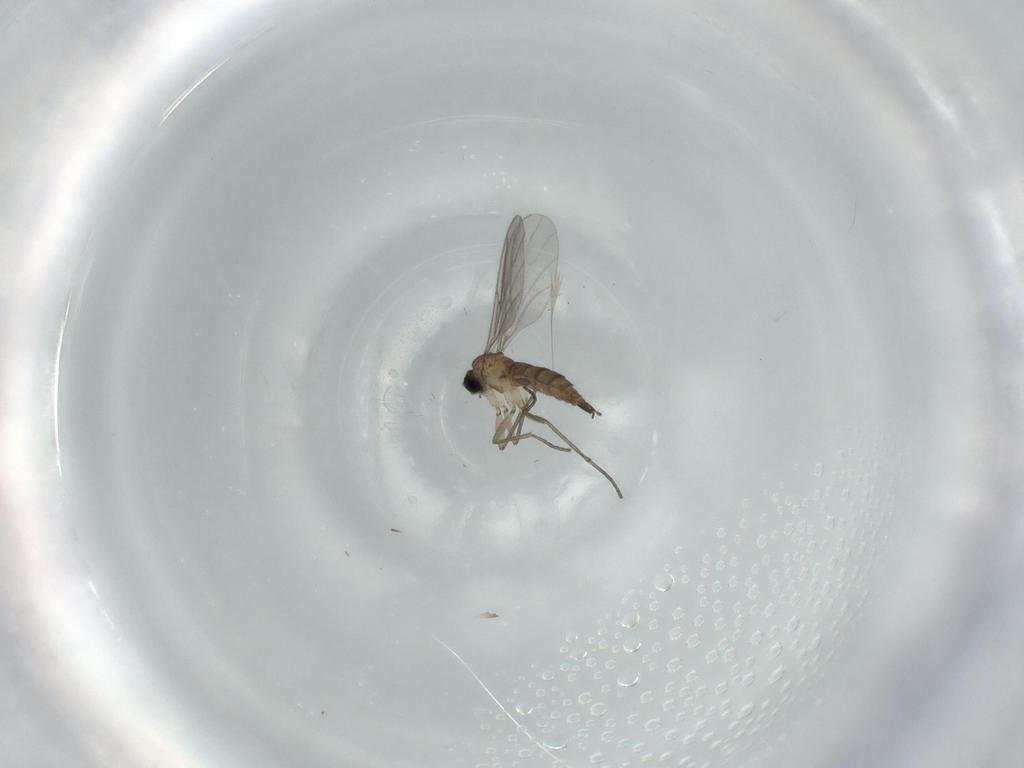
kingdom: Animalia
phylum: Arthropoda
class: Insecta
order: Diptera
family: Sciaridae
